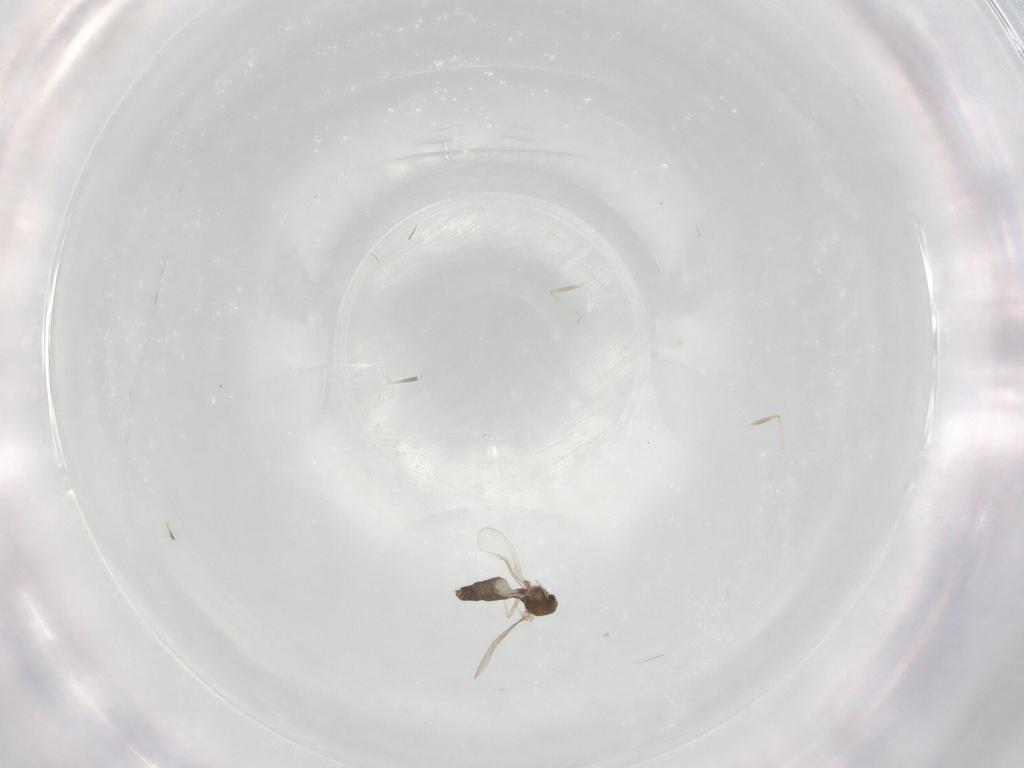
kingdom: Animalia
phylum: Arthropoda
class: Insecta
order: Diptera
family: Chironomidae
